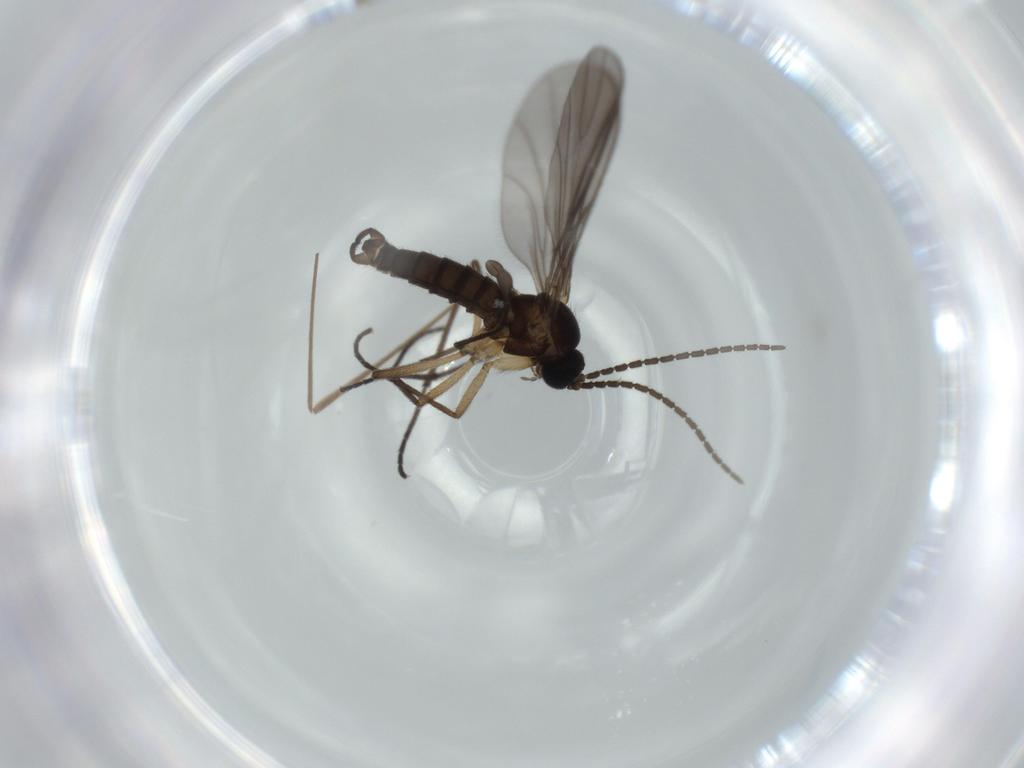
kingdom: Animalia
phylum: Arthropoda
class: Insecta
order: Diptera
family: Sciaridae
